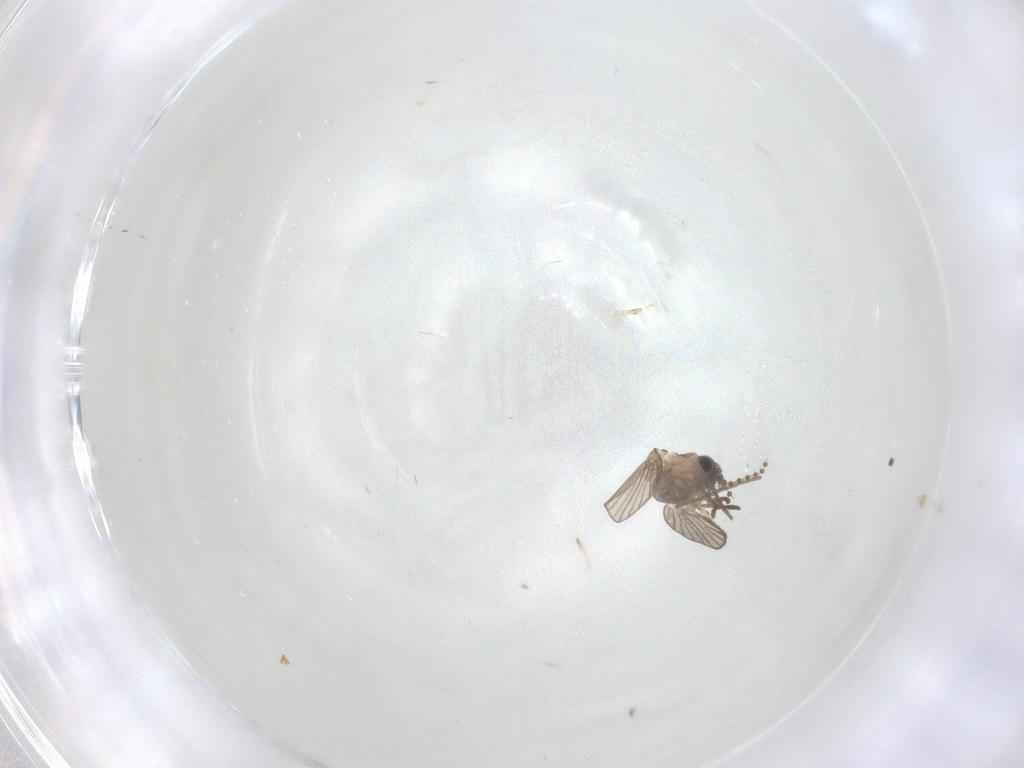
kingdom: Animalia
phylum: Arthropoda
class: Insecta
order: Diptera
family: Psychodidae
